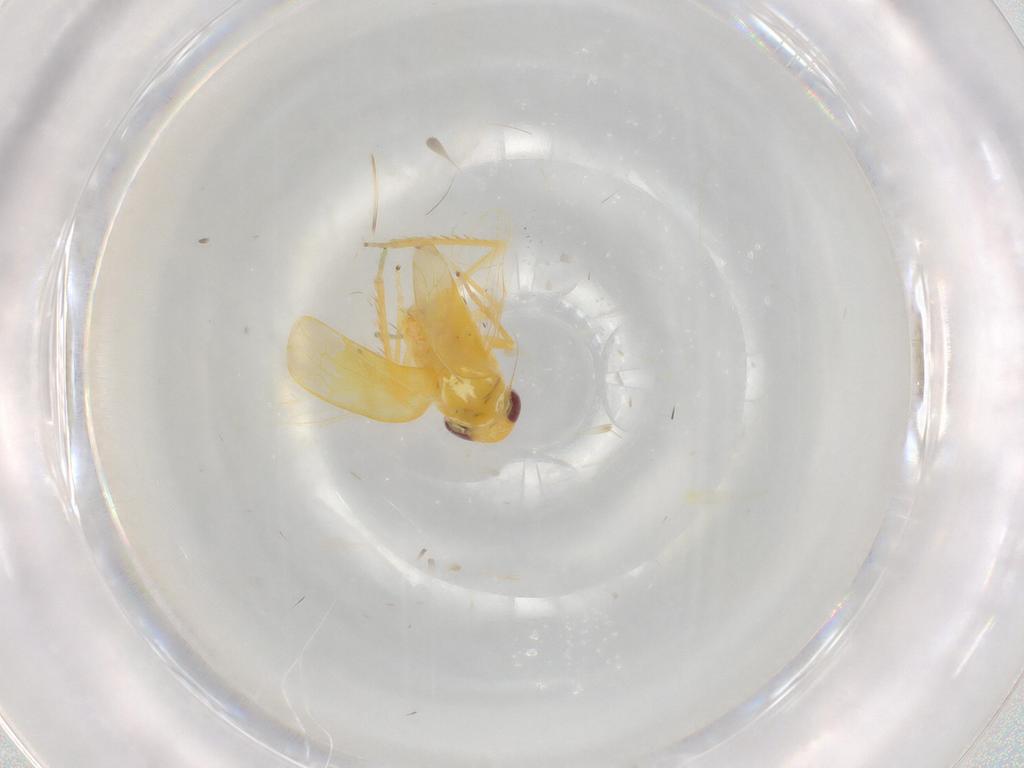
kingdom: Animalia
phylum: Arthropoda
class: Insecta
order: Hemiptera
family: Cicadellidae
